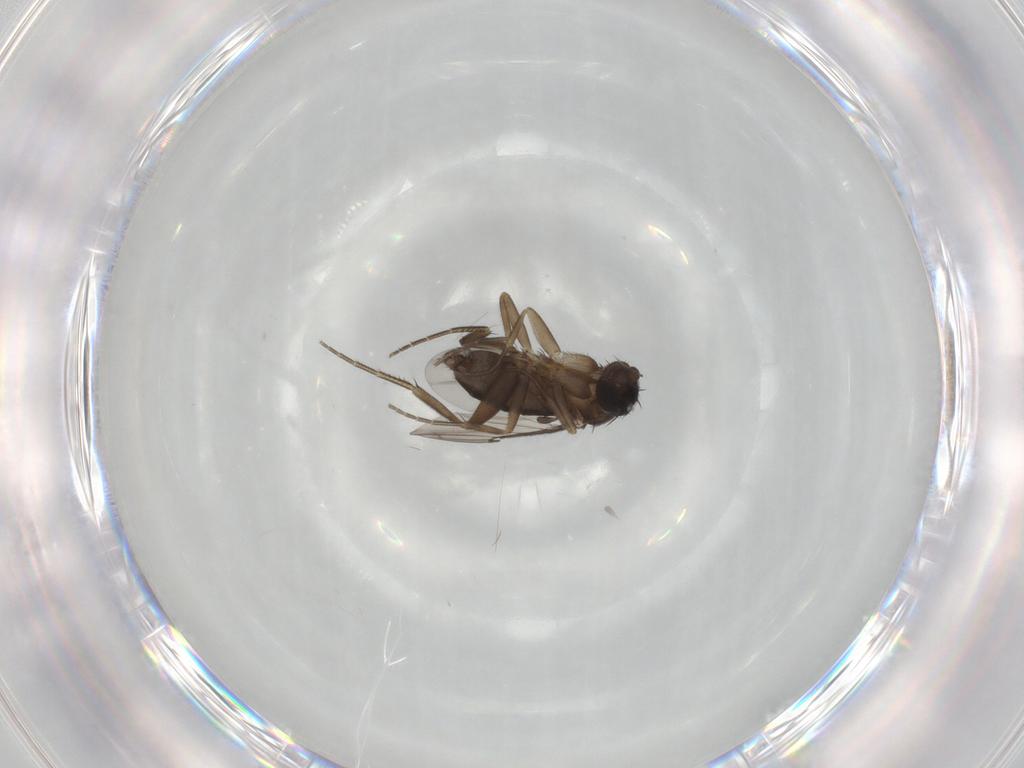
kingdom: Animalia
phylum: Arthropoda
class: Insecta
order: Diptera
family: Phoridae
